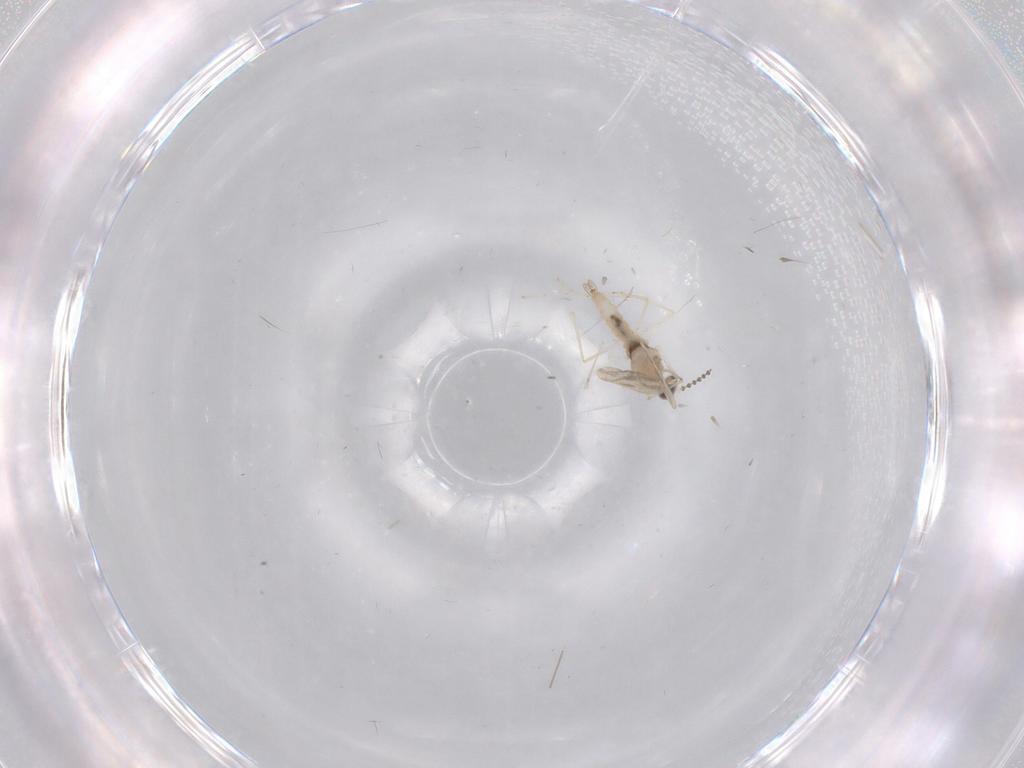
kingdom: Animalia
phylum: Arthropoda
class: Insecta
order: Diptera
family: Cecidomyiidae
